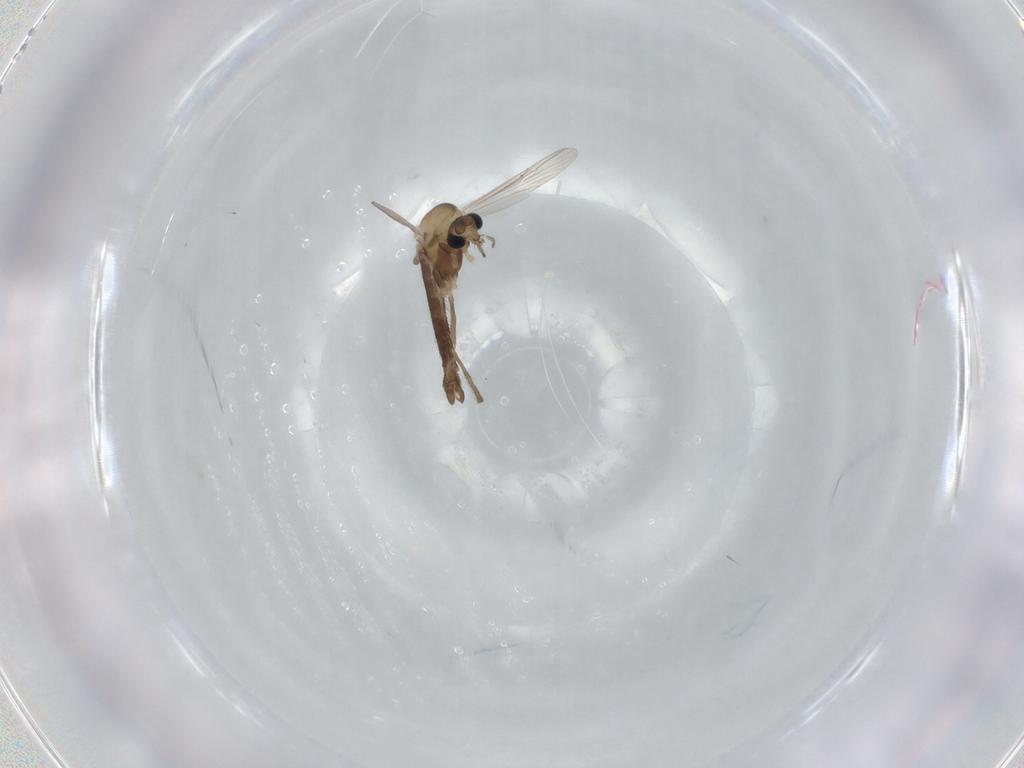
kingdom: Animalia
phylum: Arthropoda
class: Insecta
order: Diptera
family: Chironomidae
